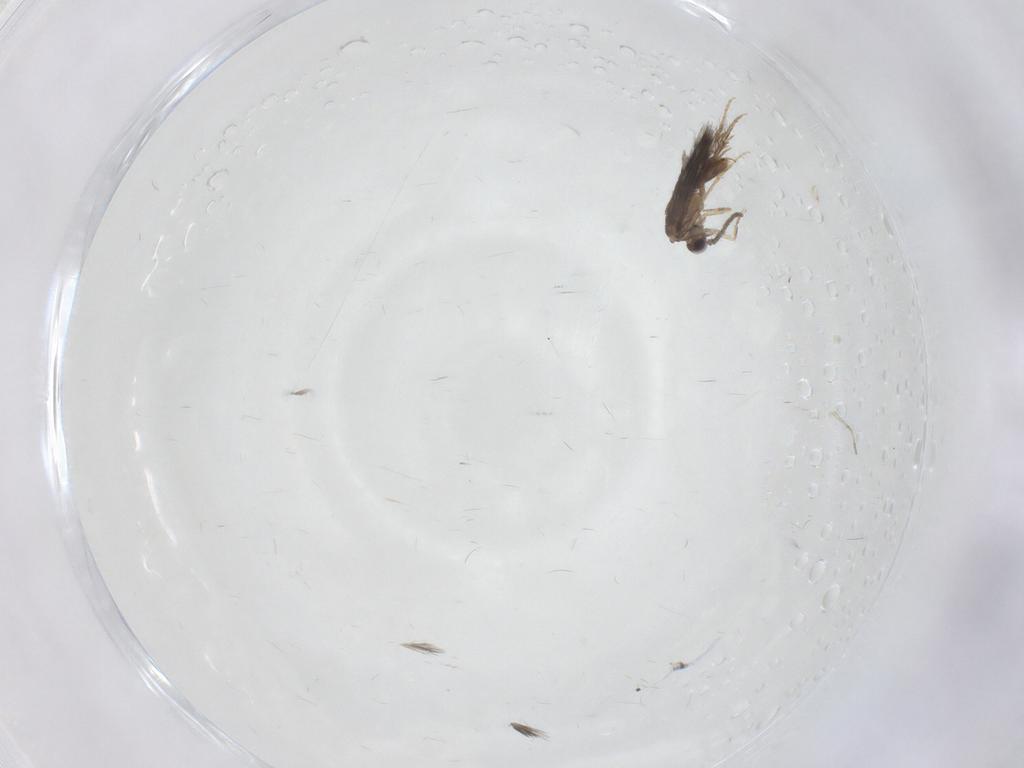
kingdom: Animalia
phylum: Arthropoda
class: Insecta
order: Trichoptera
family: Hydroptilidae
